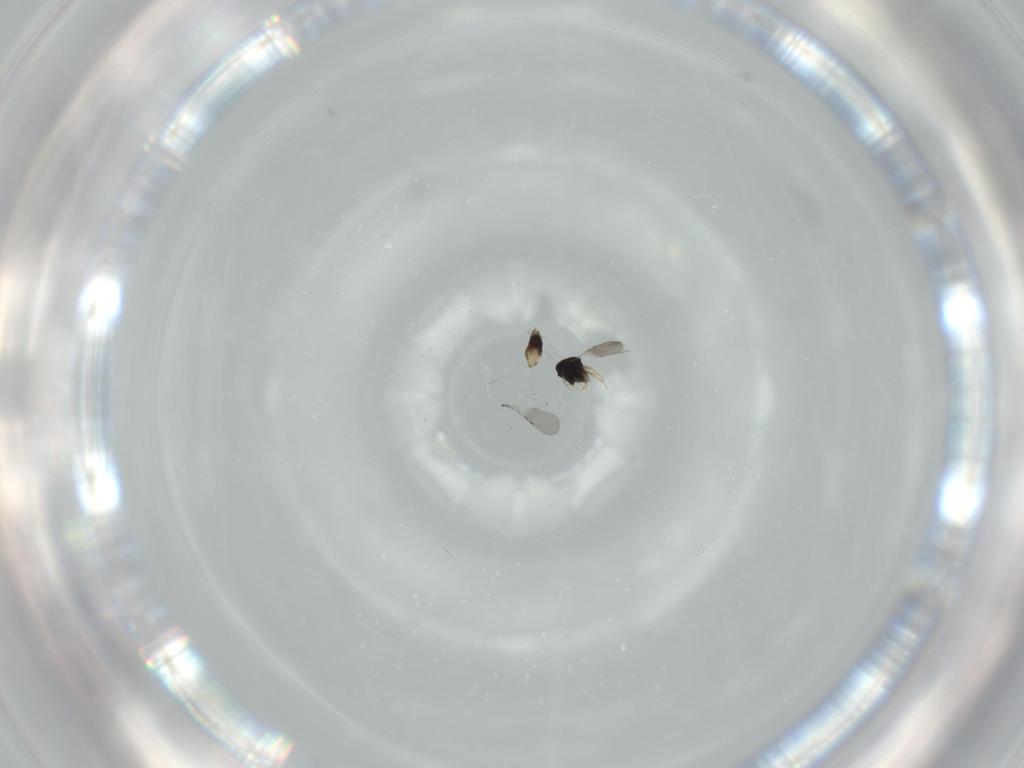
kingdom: Animalia
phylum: Arthropoda
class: Insecta
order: Hymenoptera
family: Ceraphronidae
